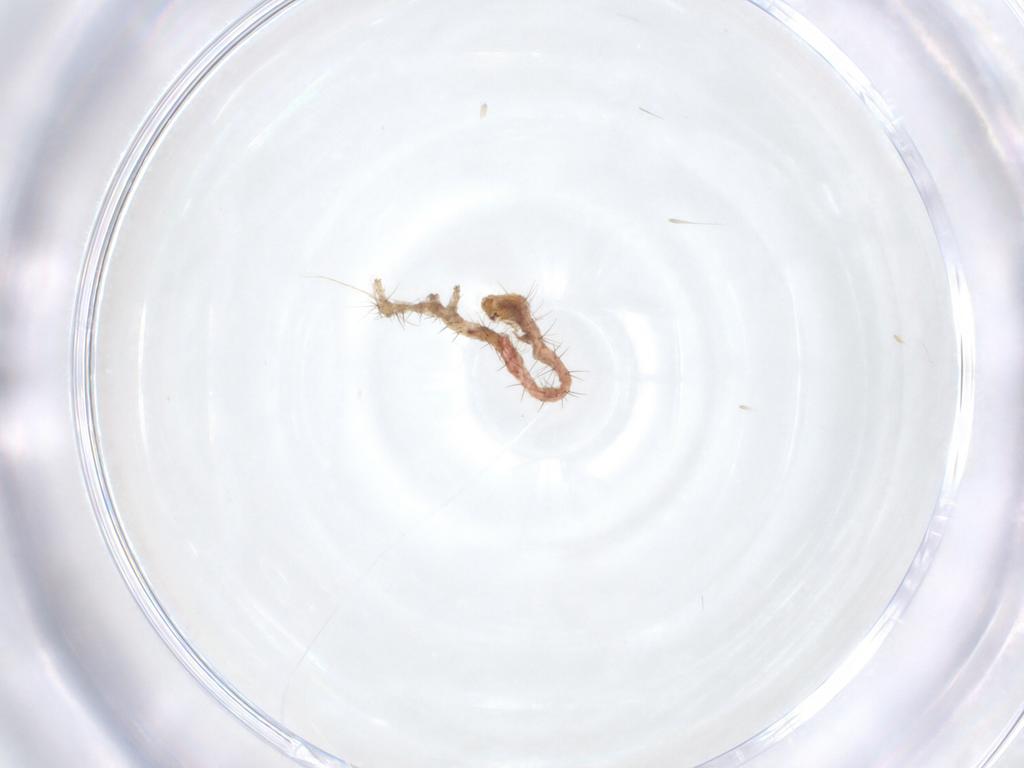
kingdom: Animalia
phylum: Arthropoda
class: Insecta
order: Lepidoptera
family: Erebidae
